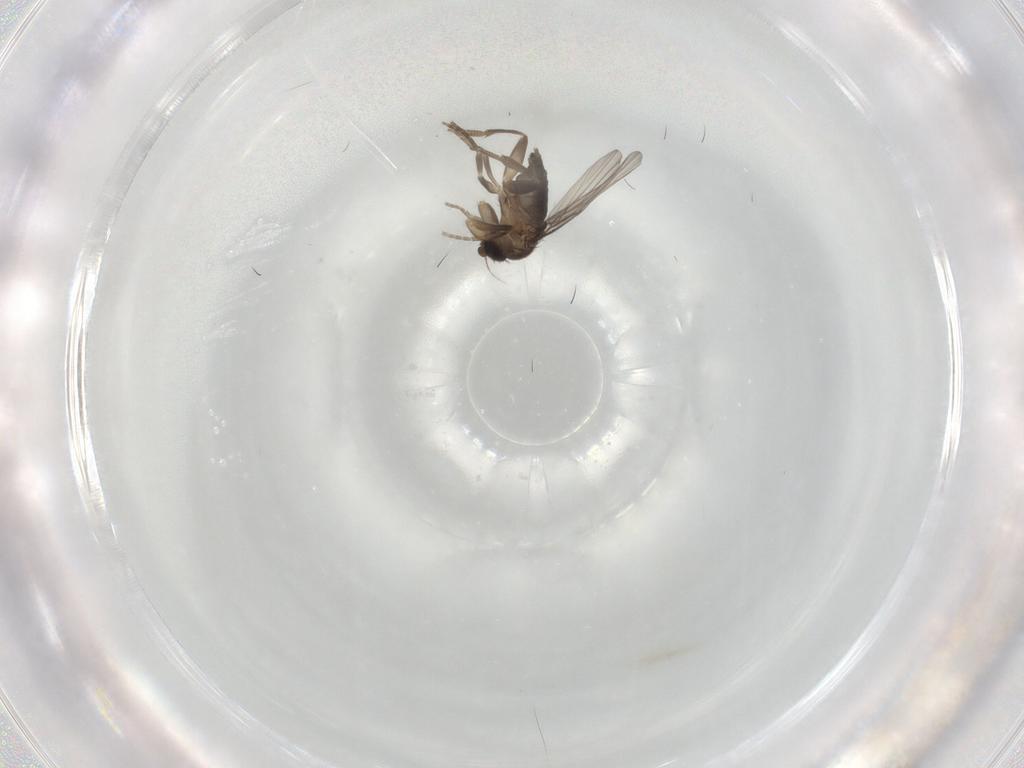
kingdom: Animalia
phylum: Arthropoda
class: Insecta
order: Diptera
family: Phoridae
